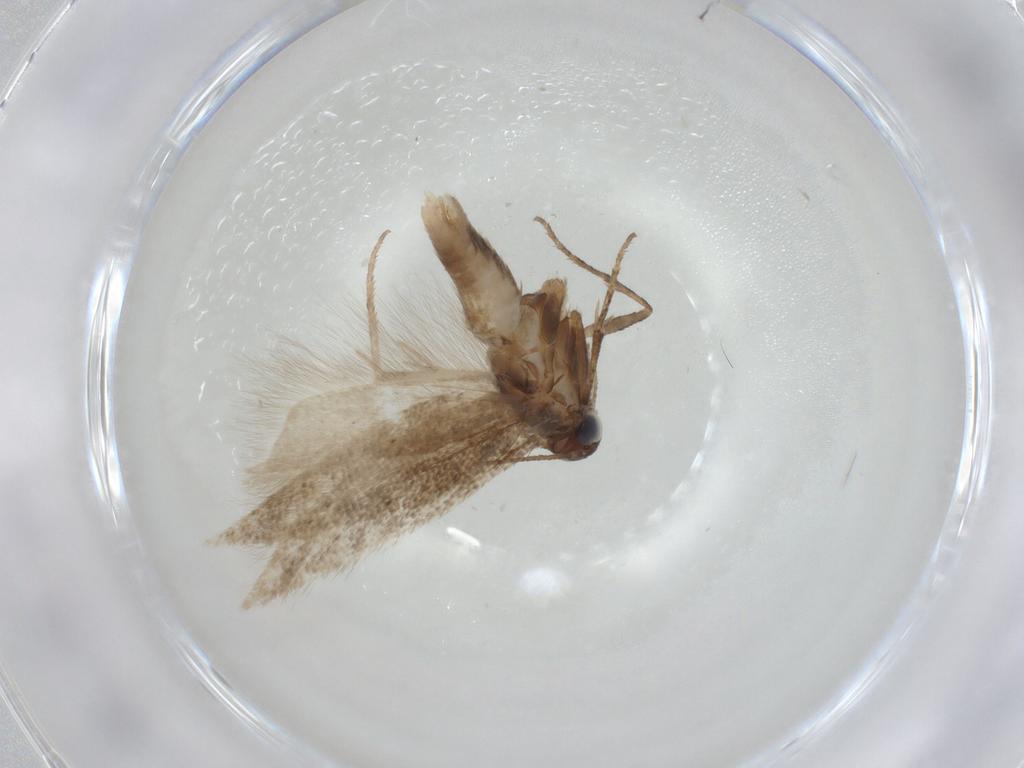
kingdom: Animalia
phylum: Arthropoda
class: Insecta
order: Lepidoptera
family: Gelechiidae
